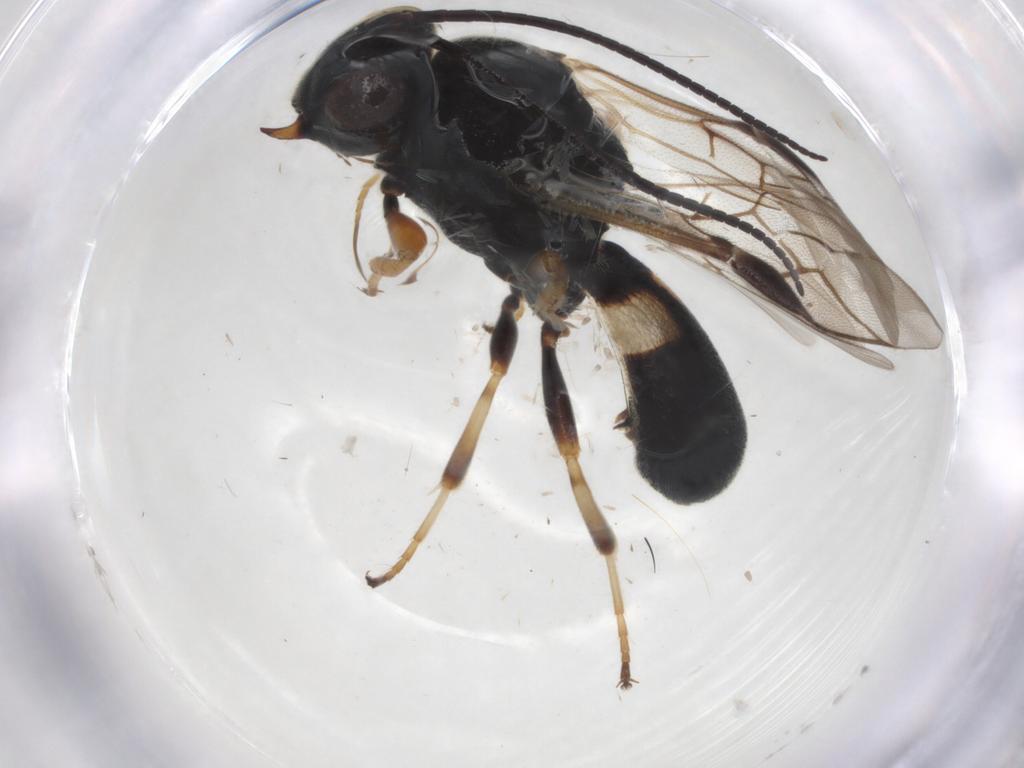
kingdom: Animalia
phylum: Arthropoda
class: Insecta
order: Hymenoptera
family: Braconidae
